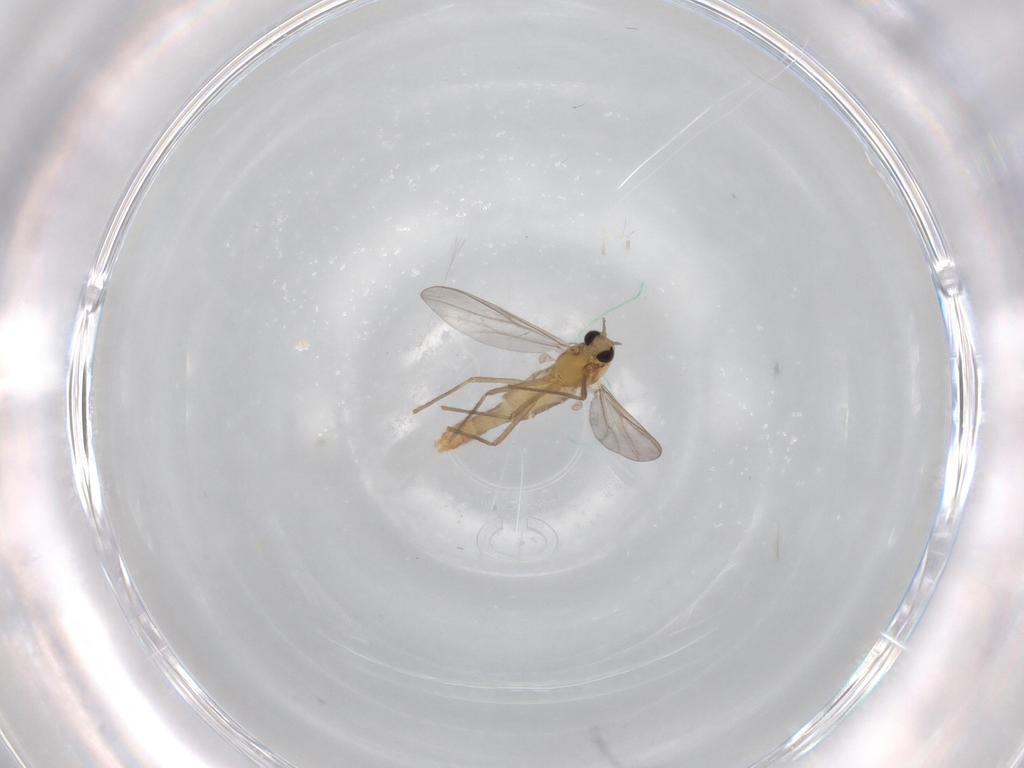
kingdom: Animalia
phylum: Arthropoda
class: Insecta
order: Diptera
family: Chironomidae
